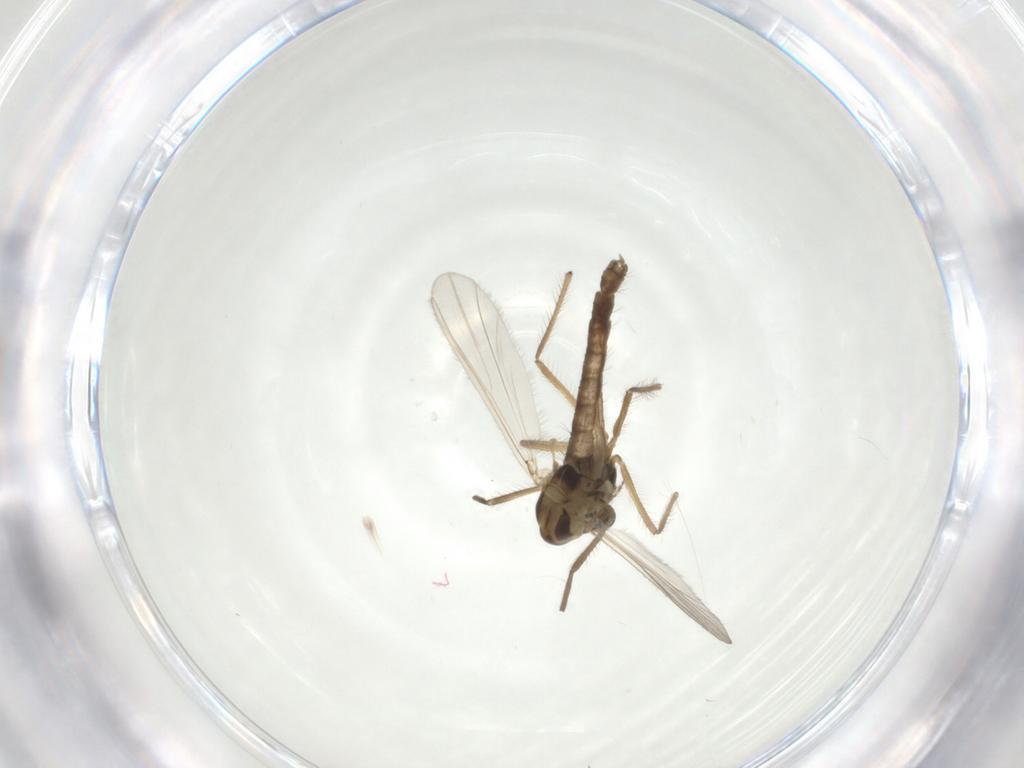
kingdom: Animalia
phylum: Arthropoda
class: Insecta
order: Diptera
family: Chironomidae
